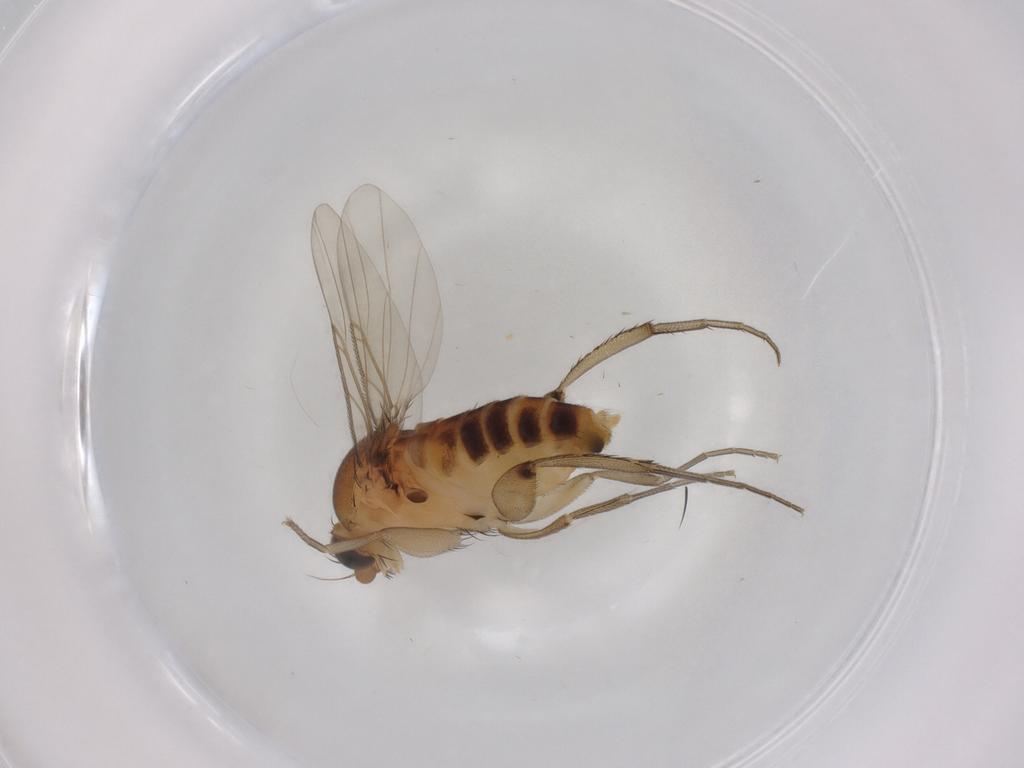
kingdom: Animalia
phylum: Arthropoda
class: Insecta
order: Diptera
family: Phoridae
